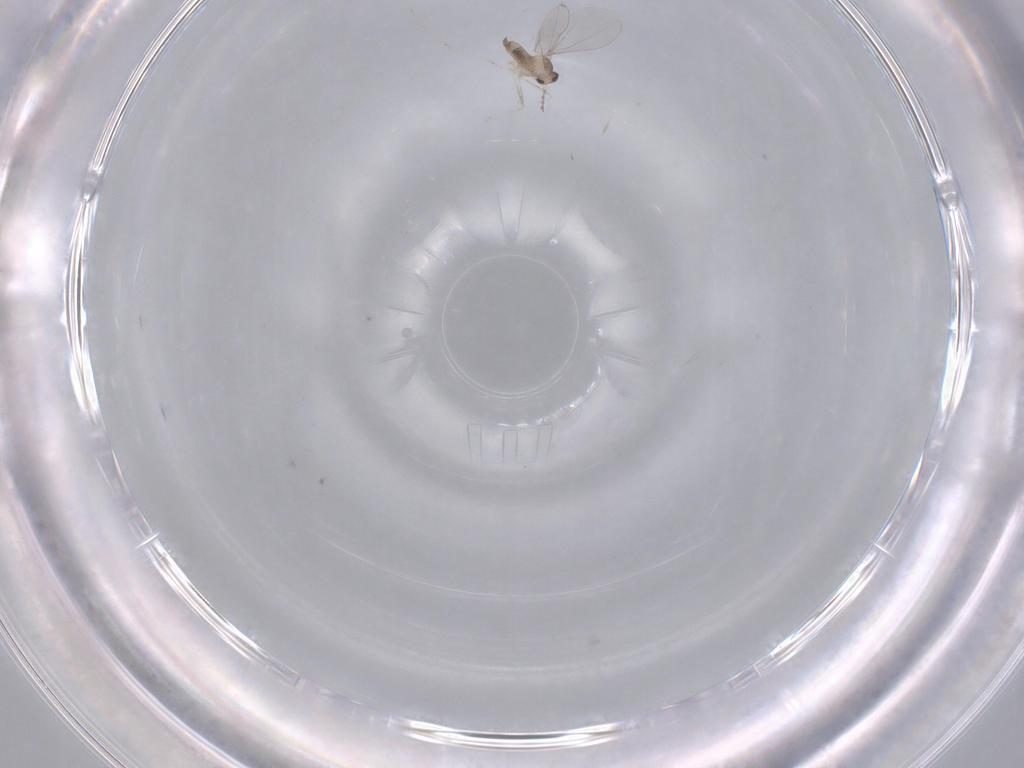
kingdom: Animalia
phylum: Arthropoda
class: Insecta
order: Diptera
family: Cecidomyiidae
